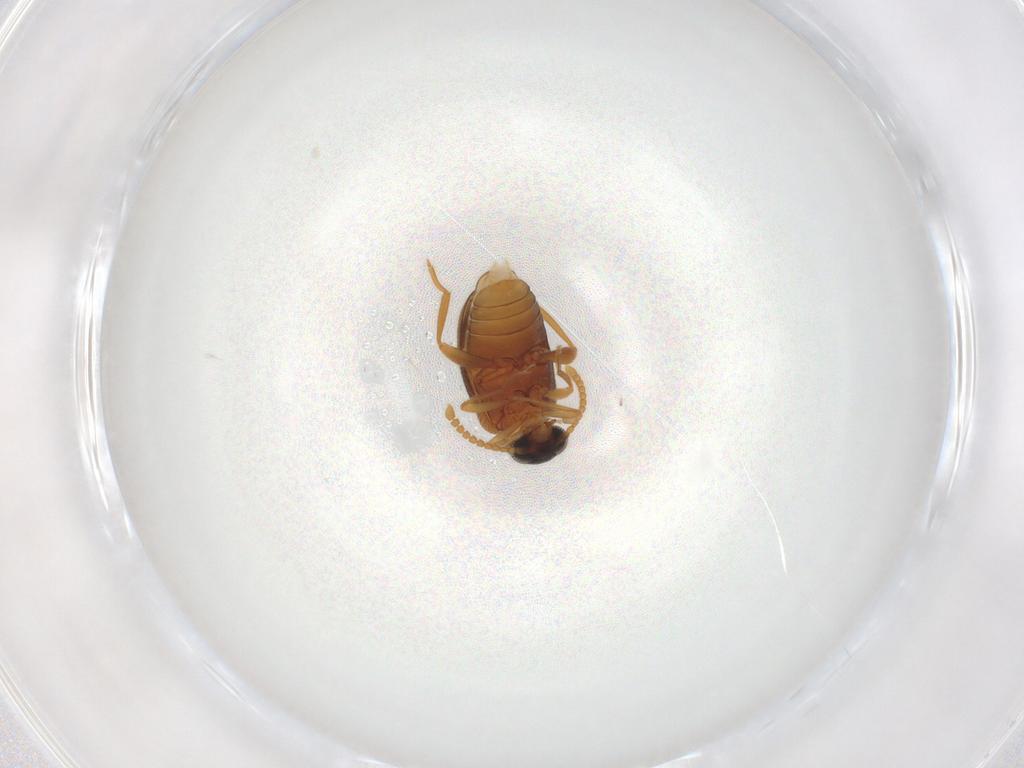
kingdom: Animalia
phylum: Arthropoda
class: Insecta
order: Coleoptera
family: Aderidae
